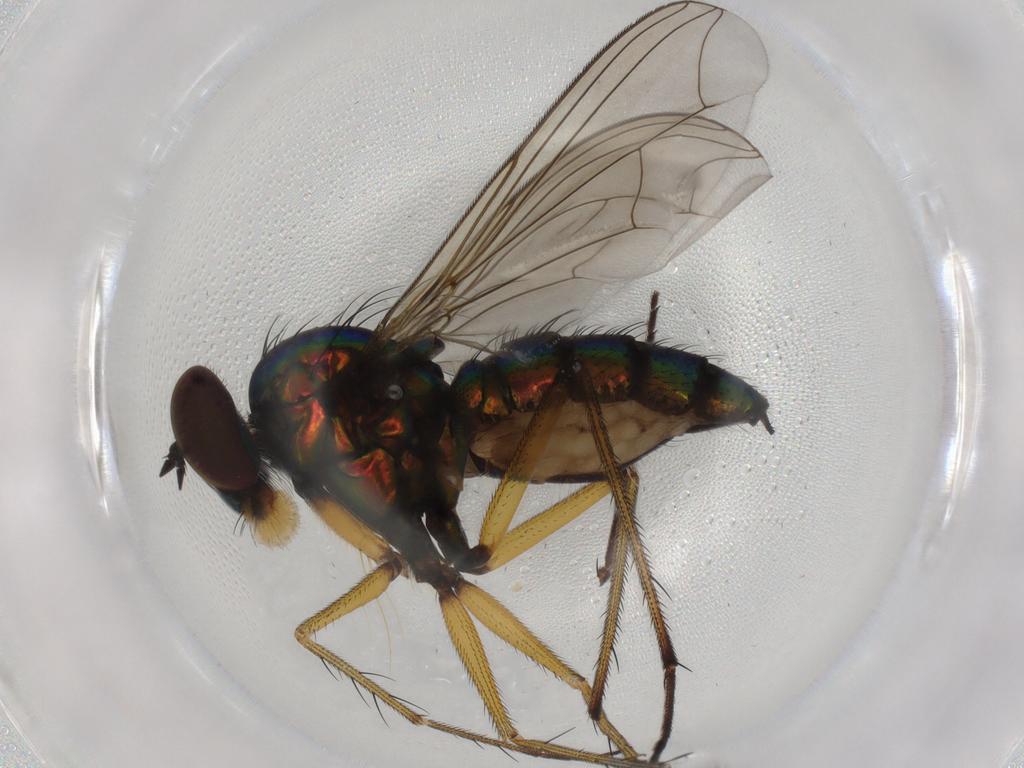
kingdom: Animalia
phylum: Arthropoda
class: Insecta
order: Diptera
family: Dolichopodidae
